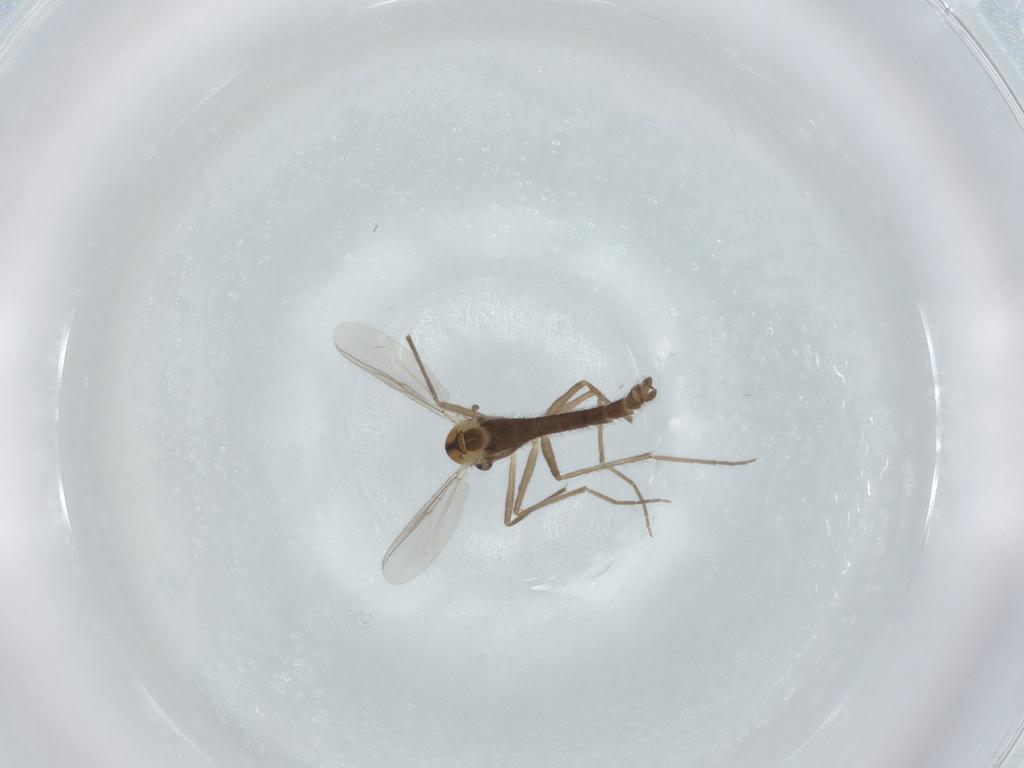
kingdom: Animalia
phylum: Arthropoda
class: Insecta
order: Diptera
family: Chironomidae
